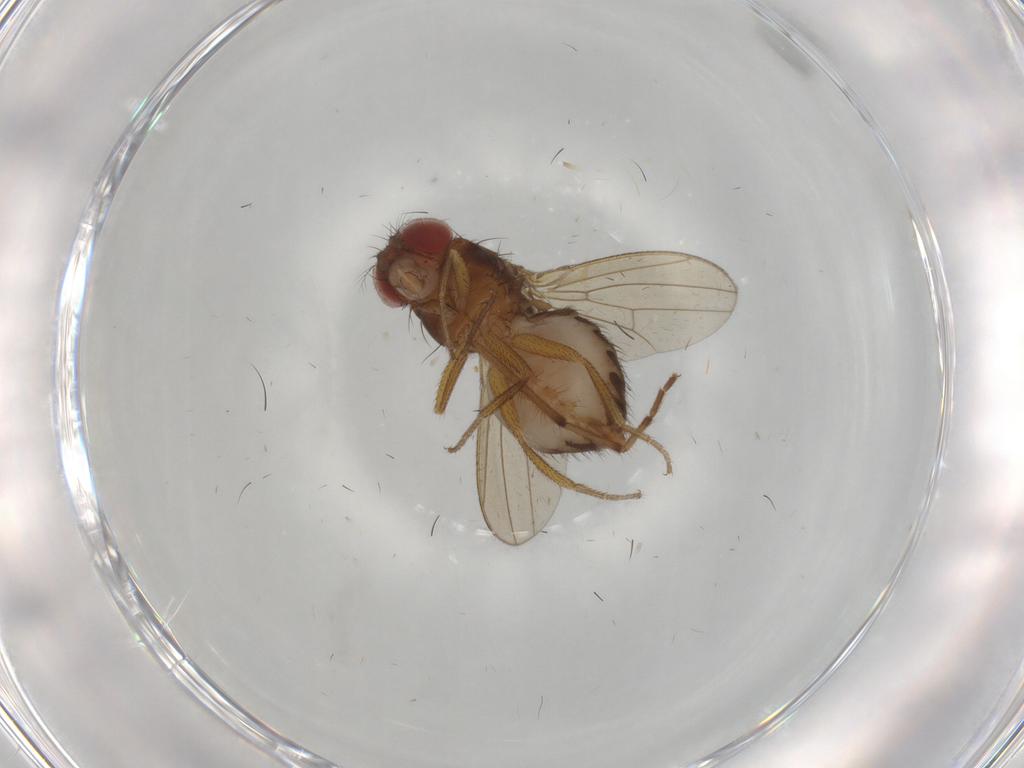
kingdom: Animalia
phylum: Arthropoda
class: Insecta
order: Diptera
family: Drosophilidae
